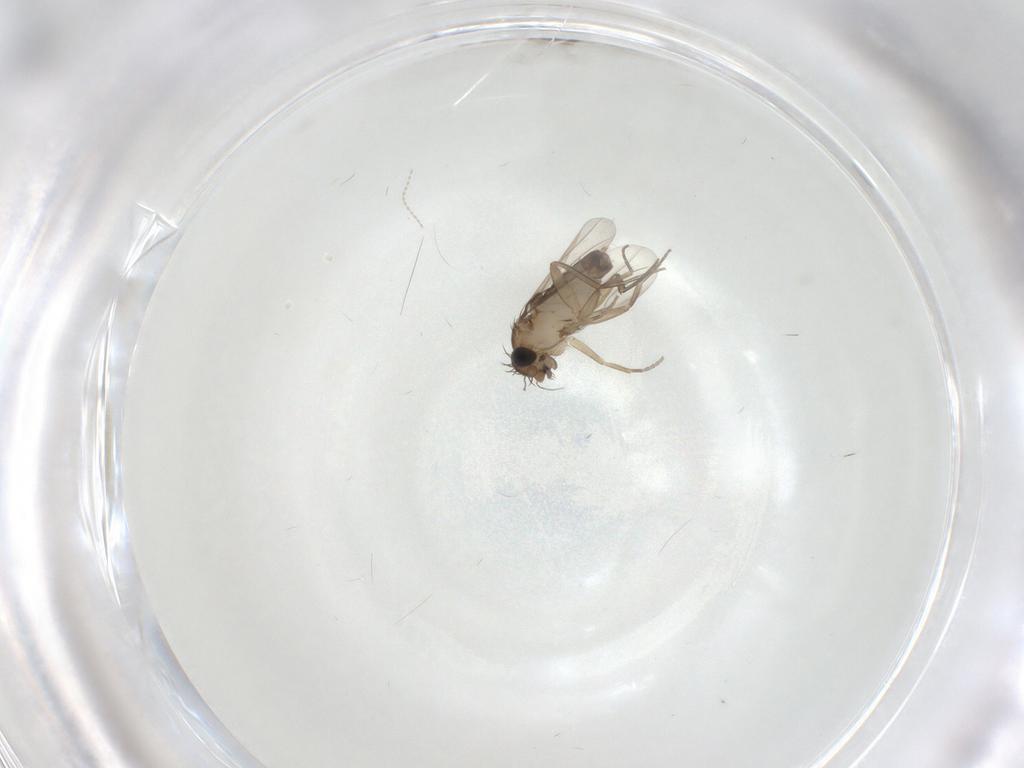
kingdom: Animalia
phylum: Arthropoda
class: Insecta
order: Diptera
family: Phoridae
